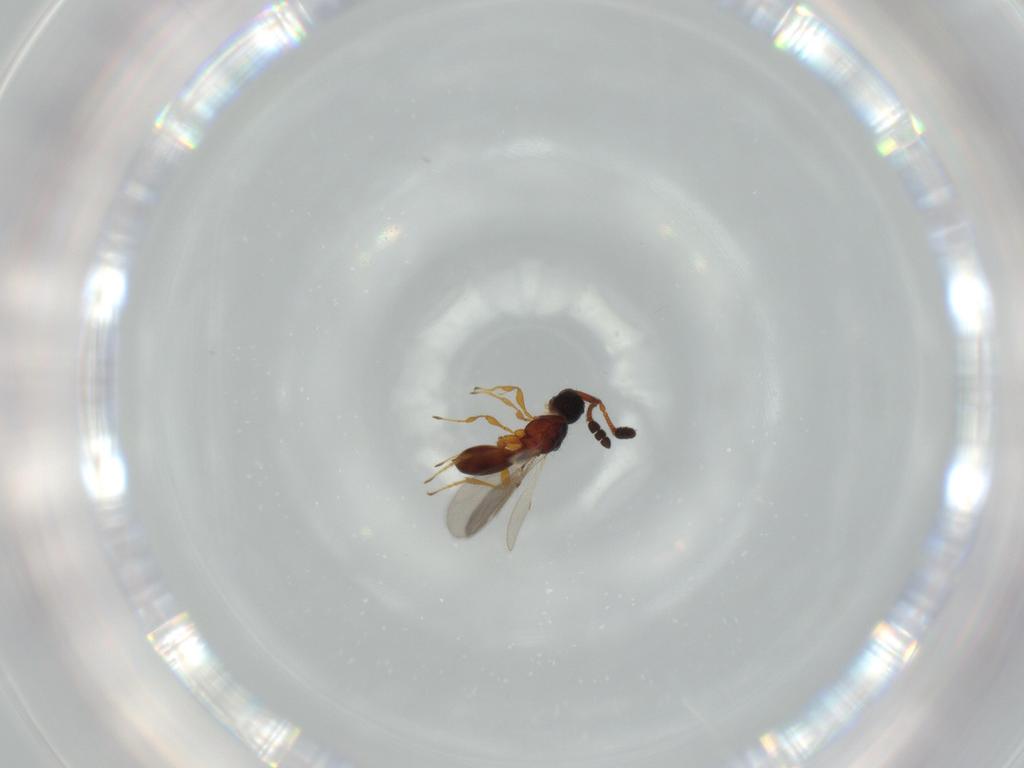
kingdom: Animalia
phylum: Arthropoda
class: Insecta
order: Hymenoptera
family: Diapriidae
